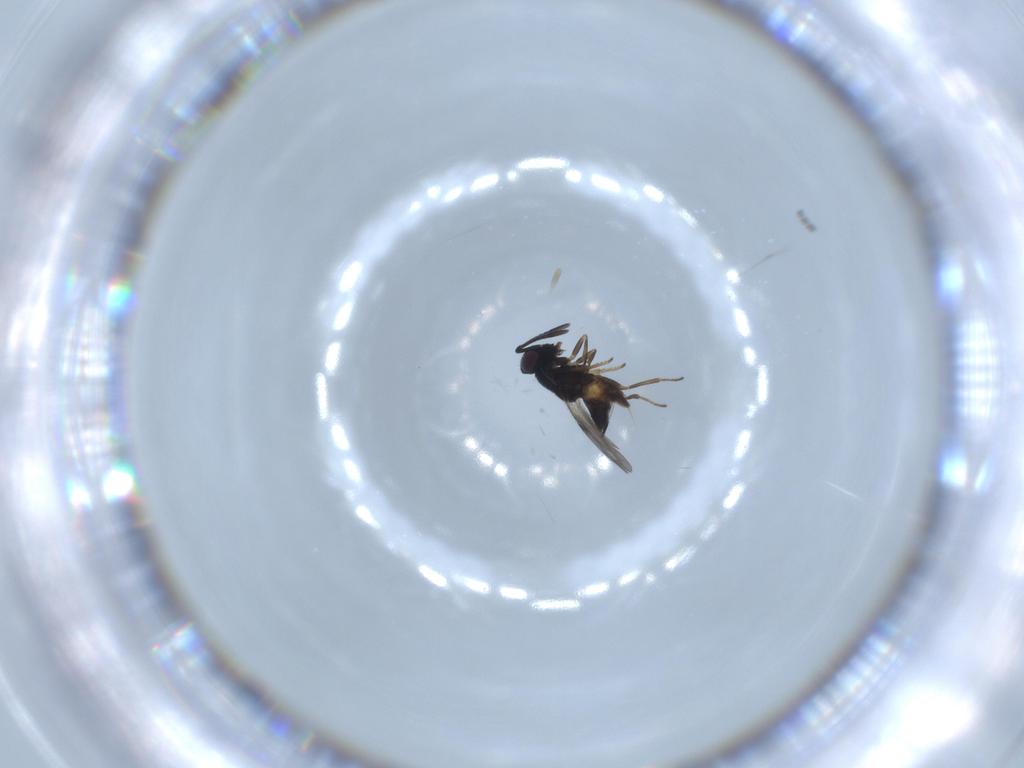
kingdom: Animalia
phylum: Arthropoda
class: Insecta
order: Hymenoptera
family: Encyrtidae
